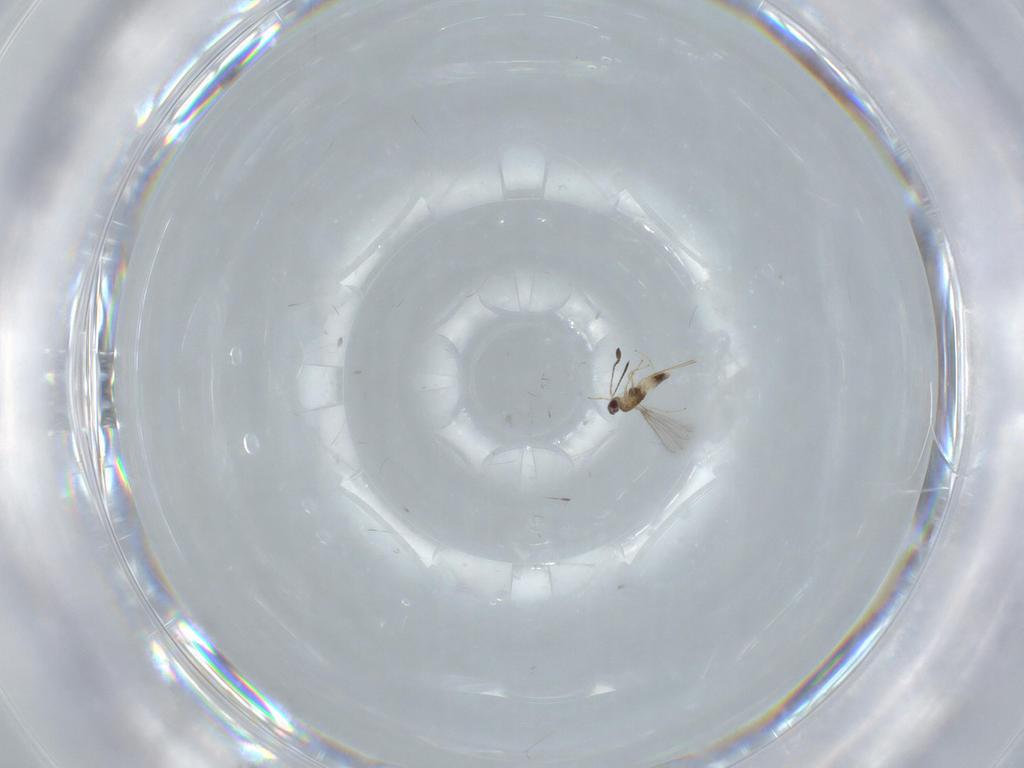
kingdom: Animalia
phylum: Arthropoda
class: Insecta
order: Hymenoptera
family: Mymaridae
